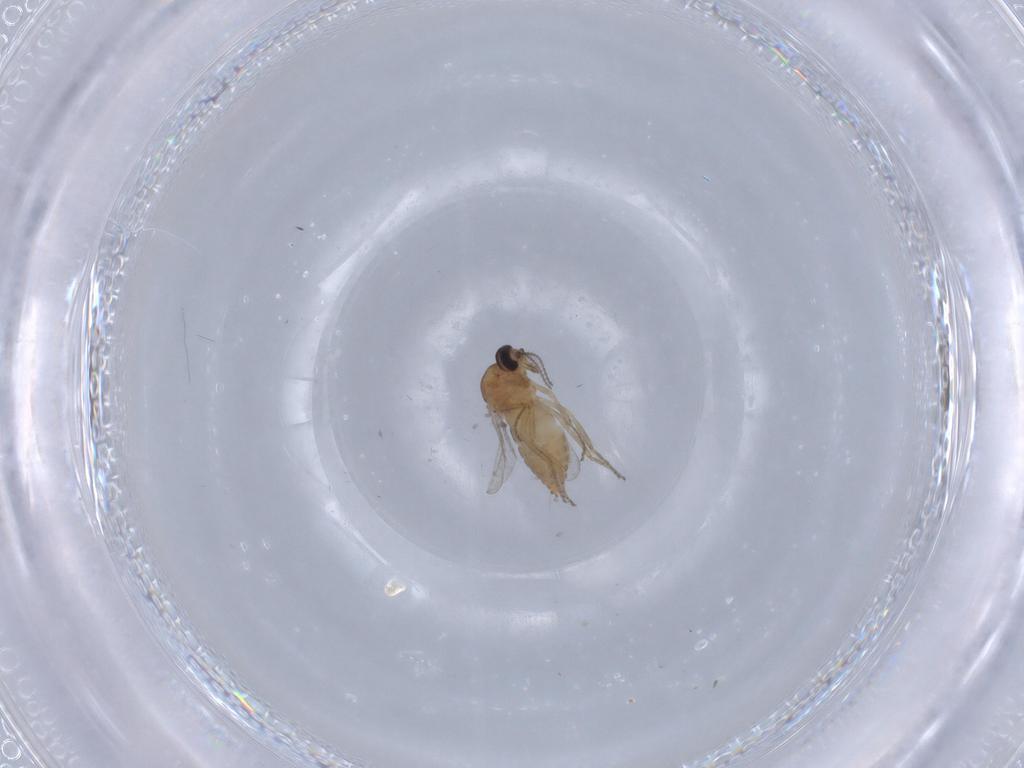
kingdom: Animalia
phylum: Arthropoda
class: Insecta
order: Diptera
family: Ceratopogonidae
